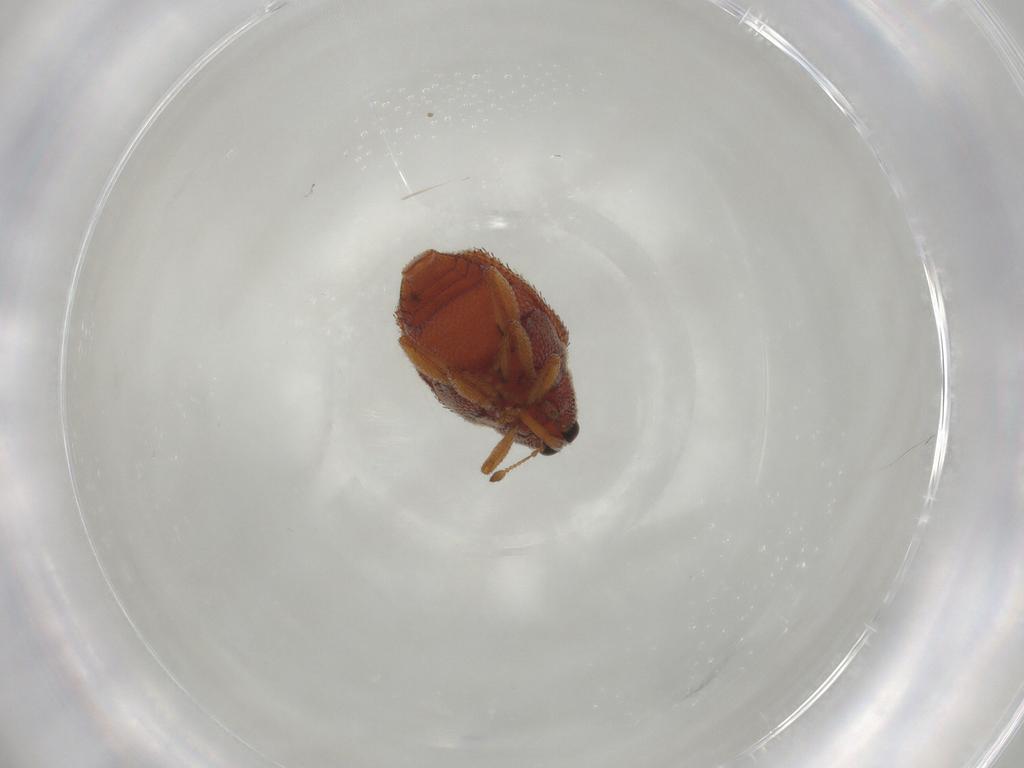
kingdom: Animalia
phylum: Arthropoda
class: Insecta
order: Coleoptera
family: Curculionidae
